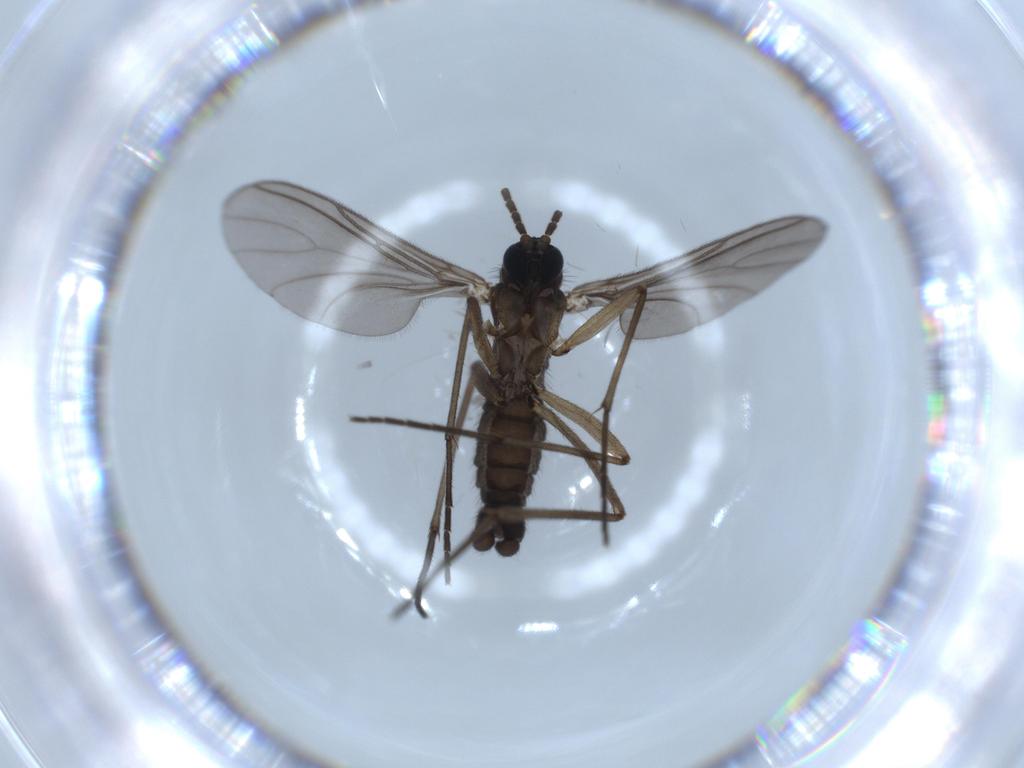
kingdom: Animalia
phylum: Arthropoda
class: Insecta
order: Diptera
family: Sciaridae
